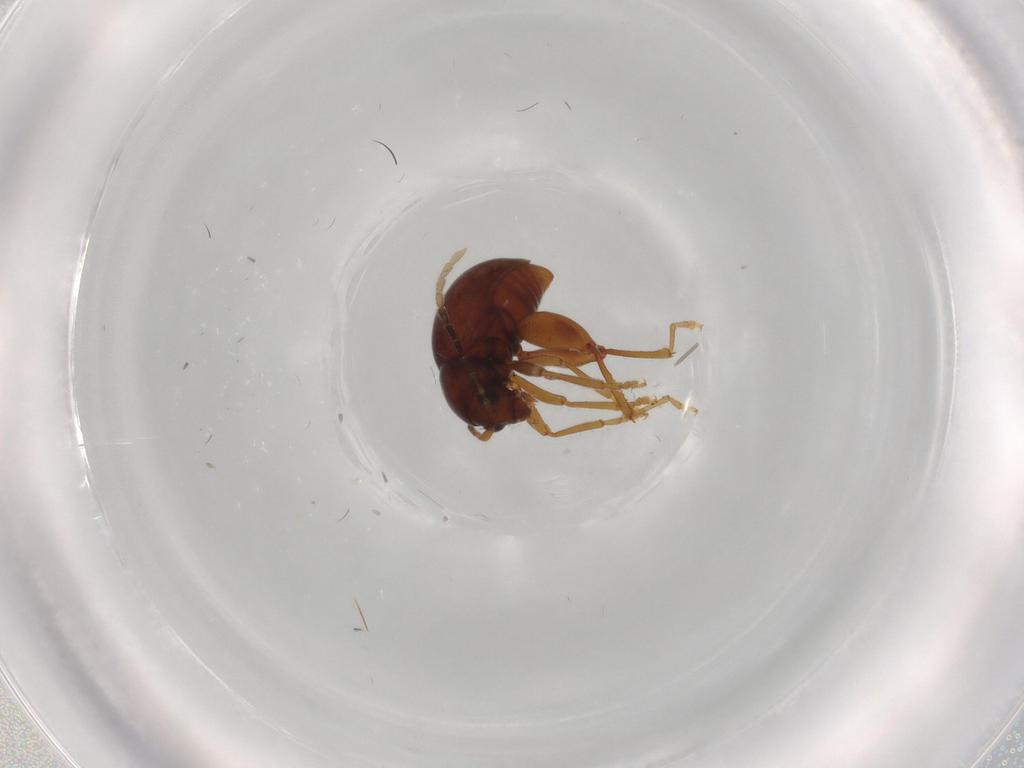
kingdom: Animalia
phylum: Arthropoda
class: Insecta
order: Coleoptera
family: Chrysomelidae
